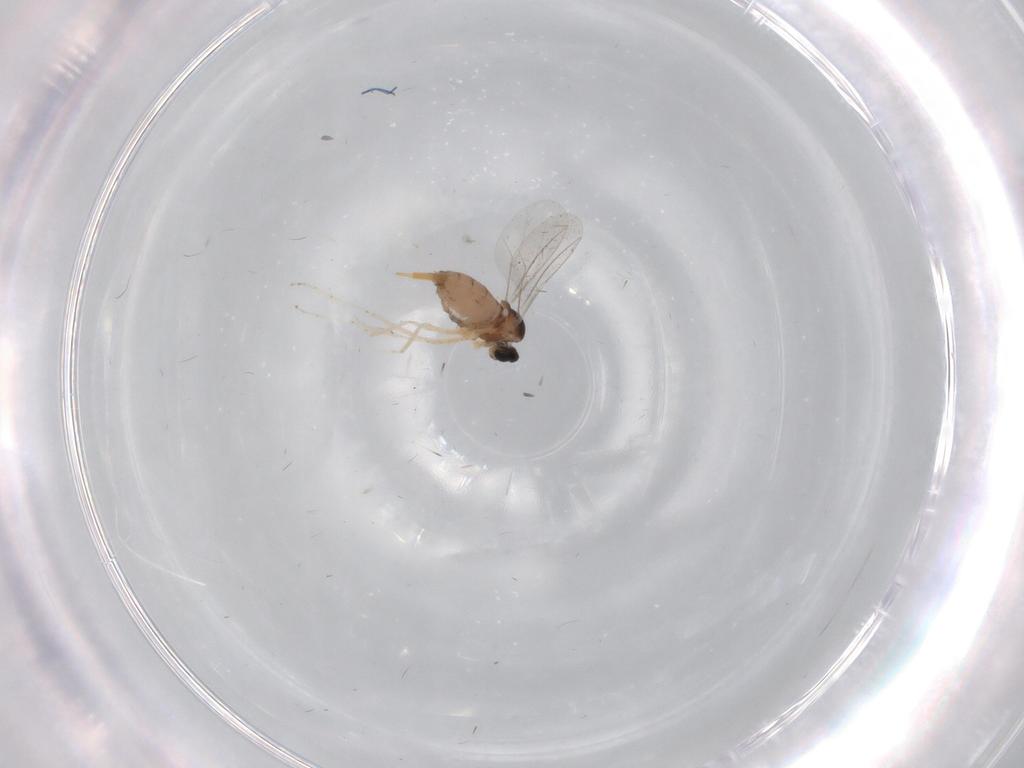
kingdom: Animalia
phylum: Arthropoda
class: Insecta
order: Diptera
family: Cecidomyiidae
